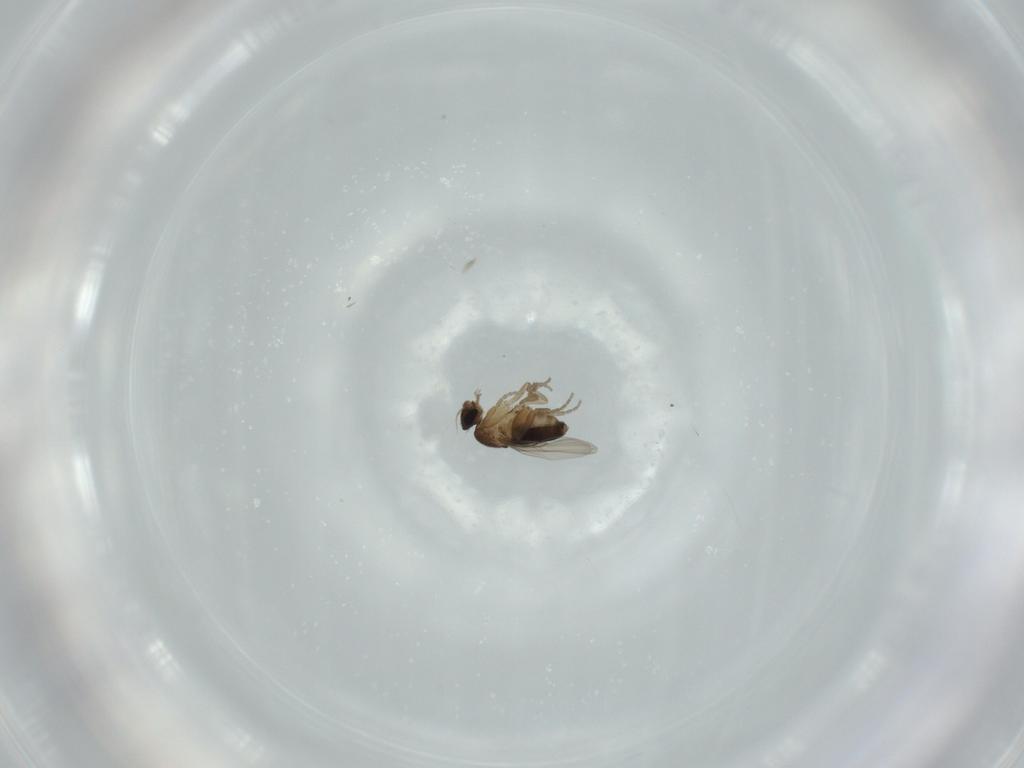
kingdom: Animalia
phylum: Arthropoda
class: Insecta
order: Diptera
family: Phoridae
